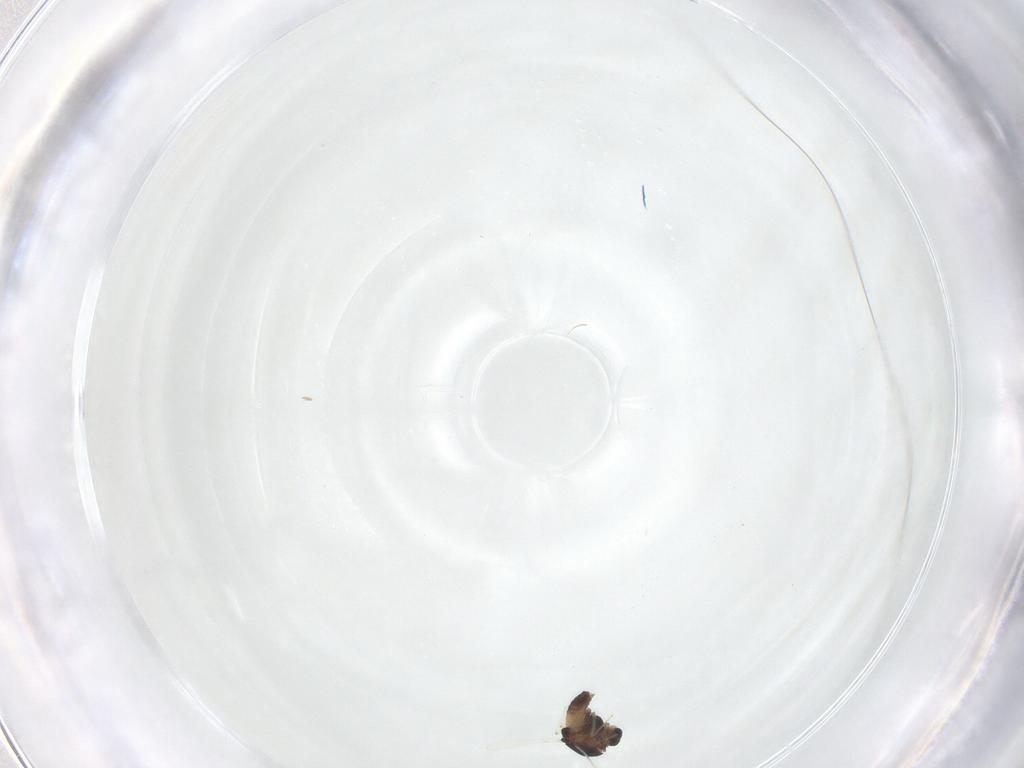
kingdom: Animalia
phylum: Arthropoda
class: Insecta
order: Diptera
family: Chironomidae
